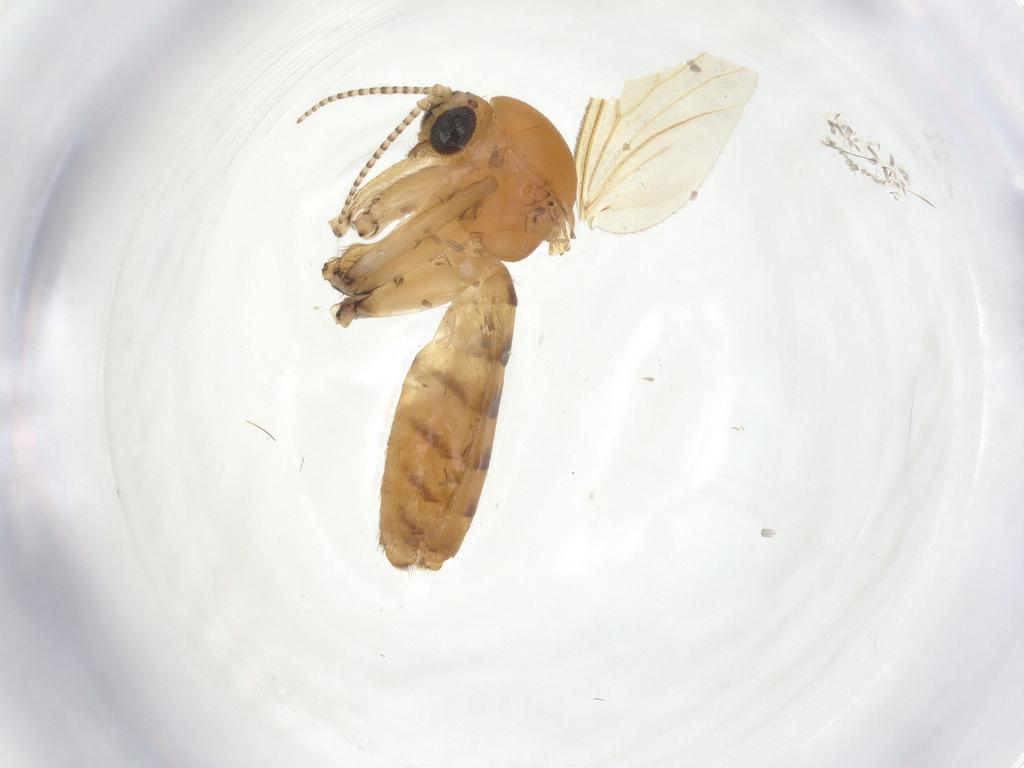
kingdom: Animalia
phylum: Arthropoda
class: Insecta
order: Diptera
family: Mycetophilidae
